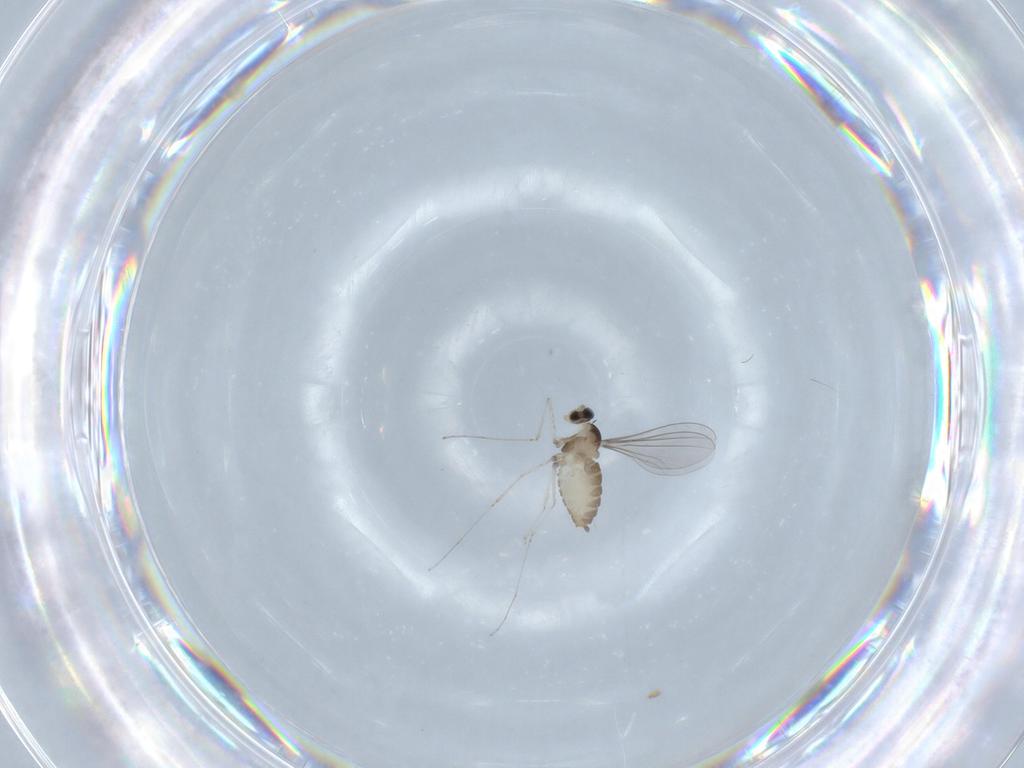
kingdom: Animalia
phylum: Arthropoda
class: Insecta
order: Diptera
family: Cecidomyiidae
